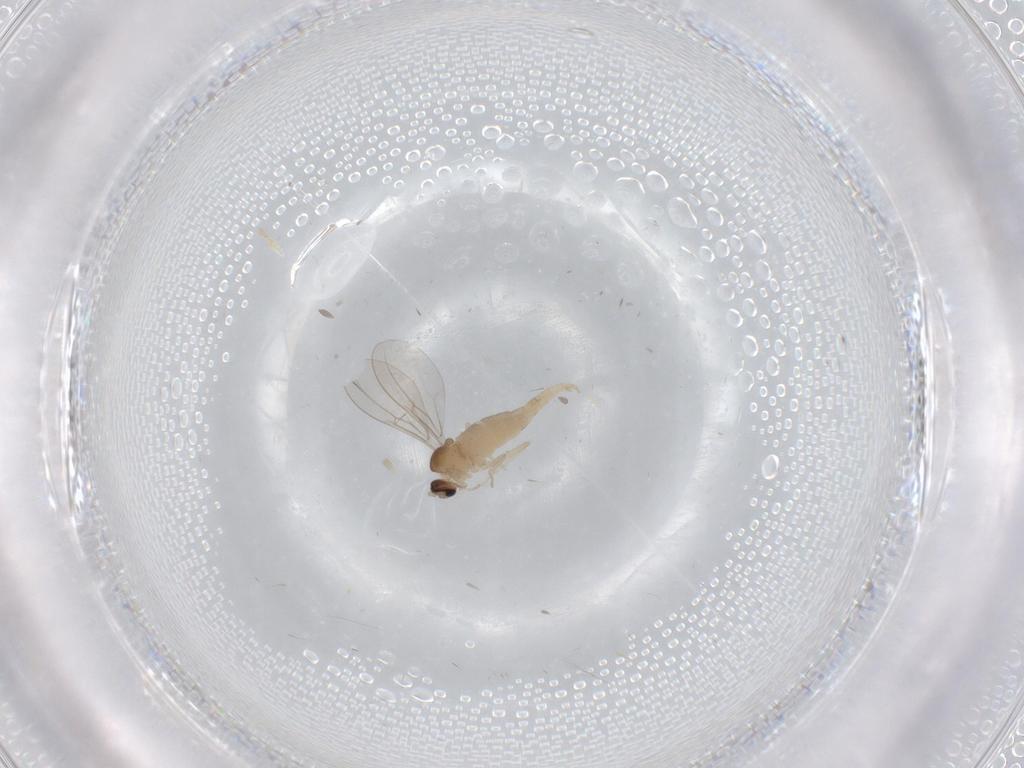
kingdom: Animalia
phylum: Arthropoda
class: Insecta
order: Diptera
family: Cecidomyiidae
